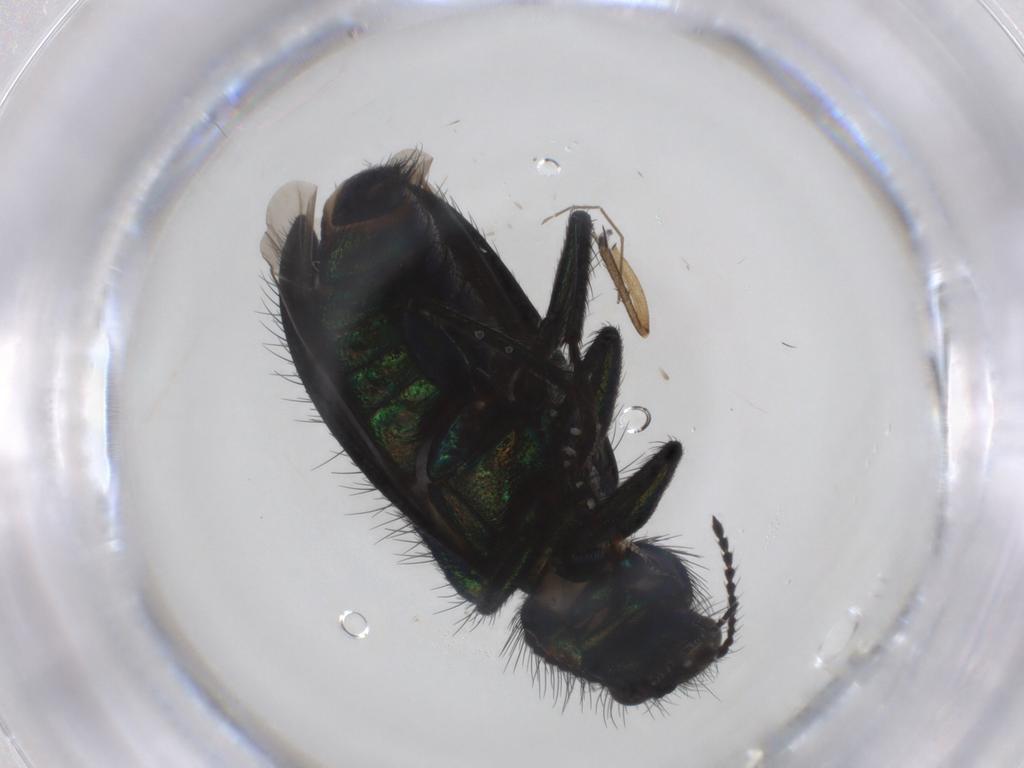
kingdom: Animalia
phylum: Arthropoda
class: Insecta
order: Coleoptera
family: Melyridae
